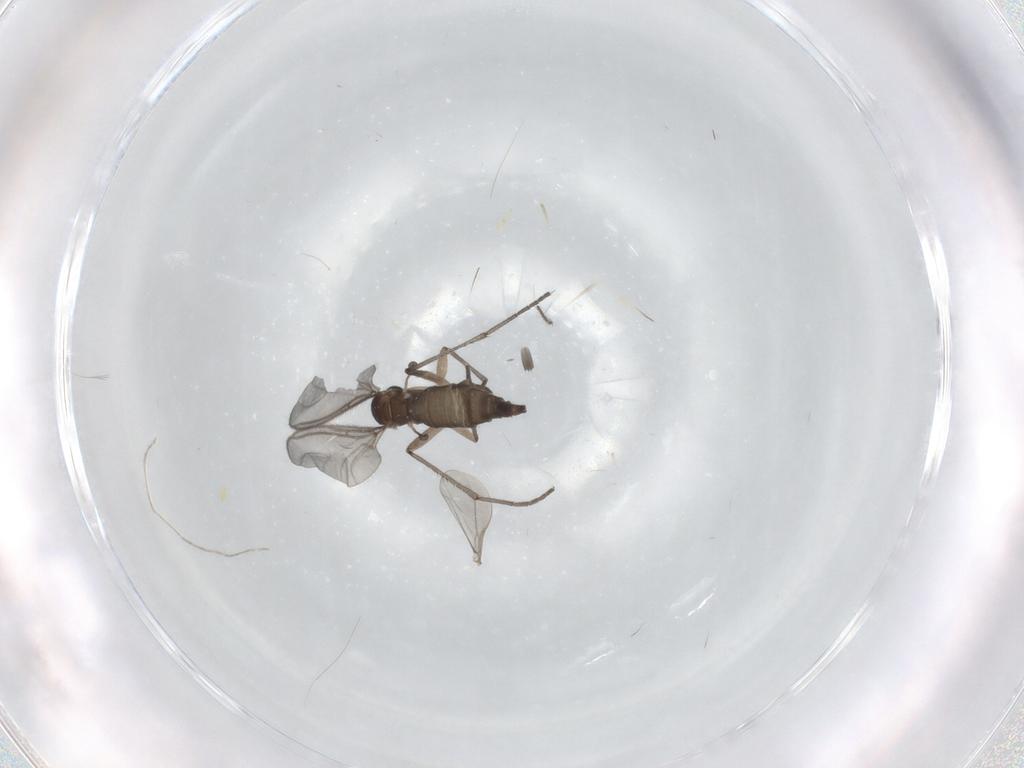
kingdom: Animalia
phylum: Arthropoda
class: Insecta
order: Diptera
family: Sciaridae
